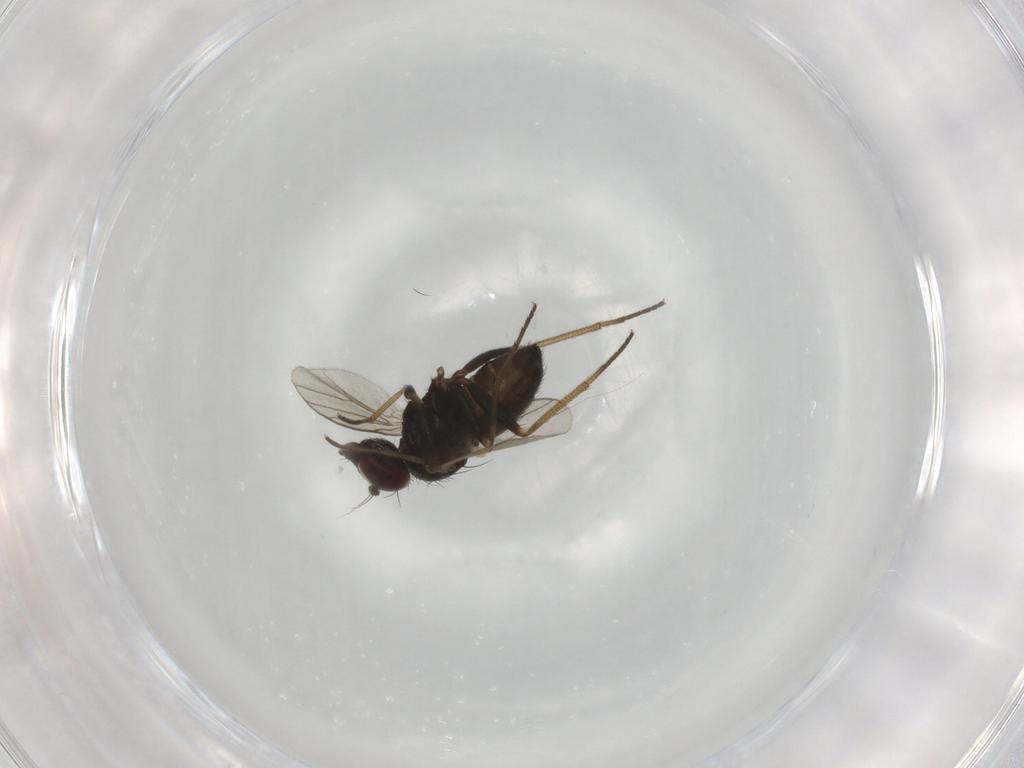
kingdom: Animalia
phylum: Arthropoda
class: Insecta
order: Diptera
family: Dolichopodidae
